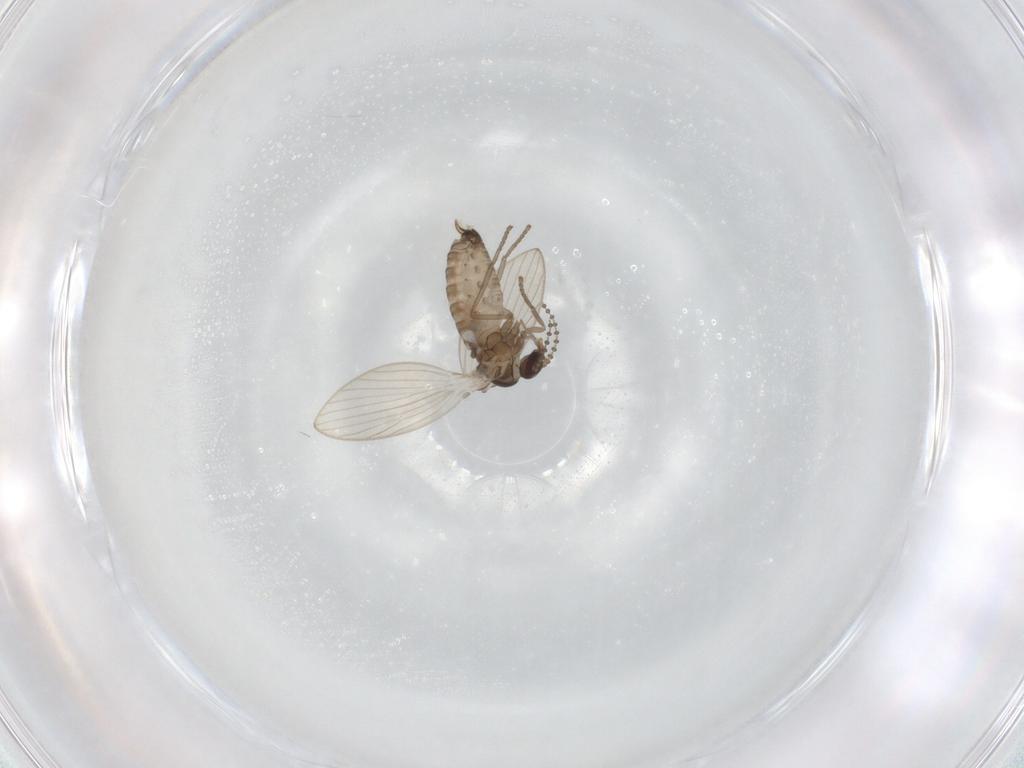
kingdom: Animalia
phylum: Arthropoda
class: Insecta
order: Diptera
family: Psychodidae
